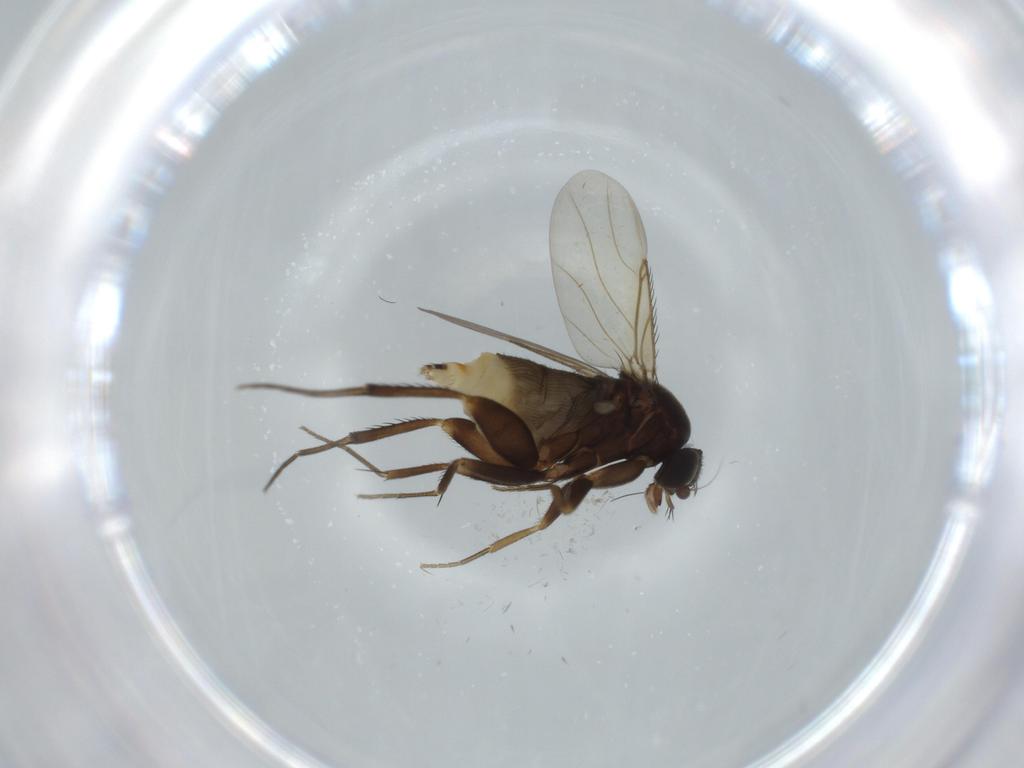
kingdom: Animalia
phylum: Arthropoda
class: Insecta
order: Diptera
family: Phoridae
